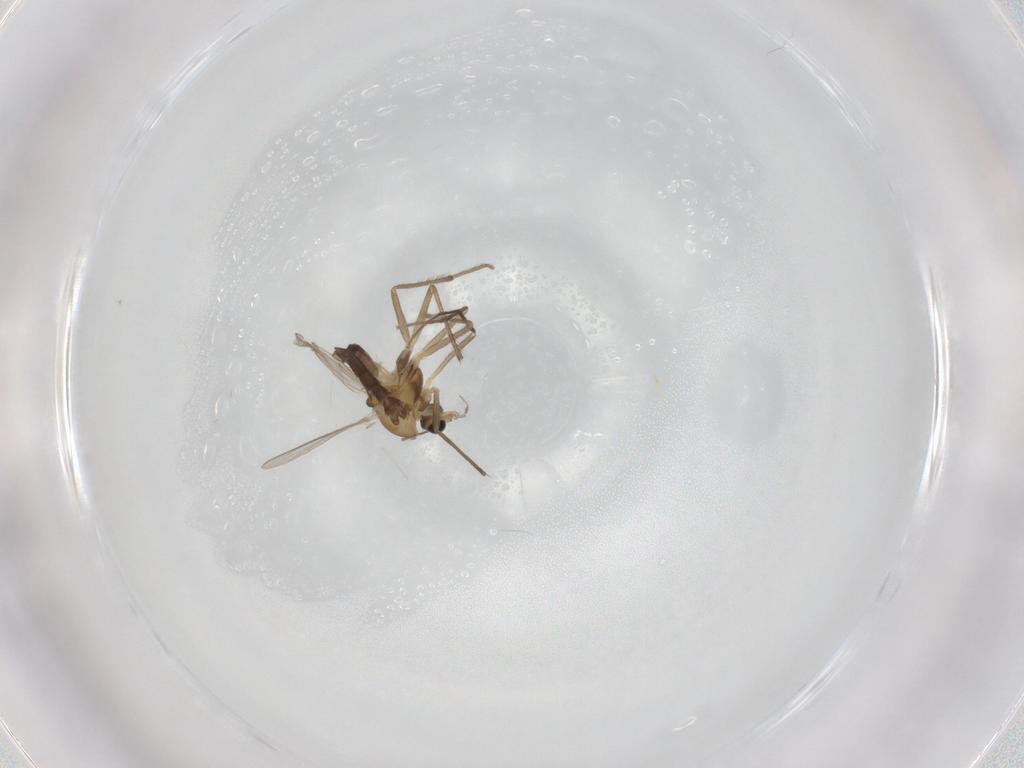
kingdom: Animalia
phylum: Arthropoda
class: Insecta
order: Diptera
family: Chironomidae
